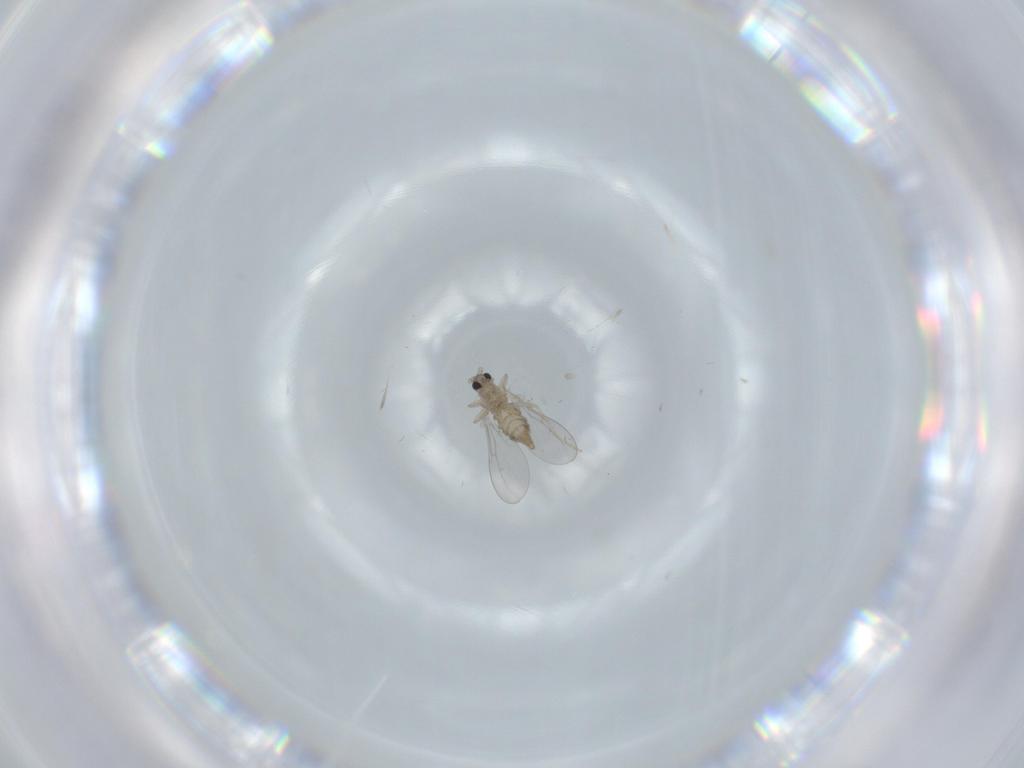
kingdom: Animalia
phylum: Arthropoda
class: Insecta
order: Diptera
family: Cecidomyiidae
